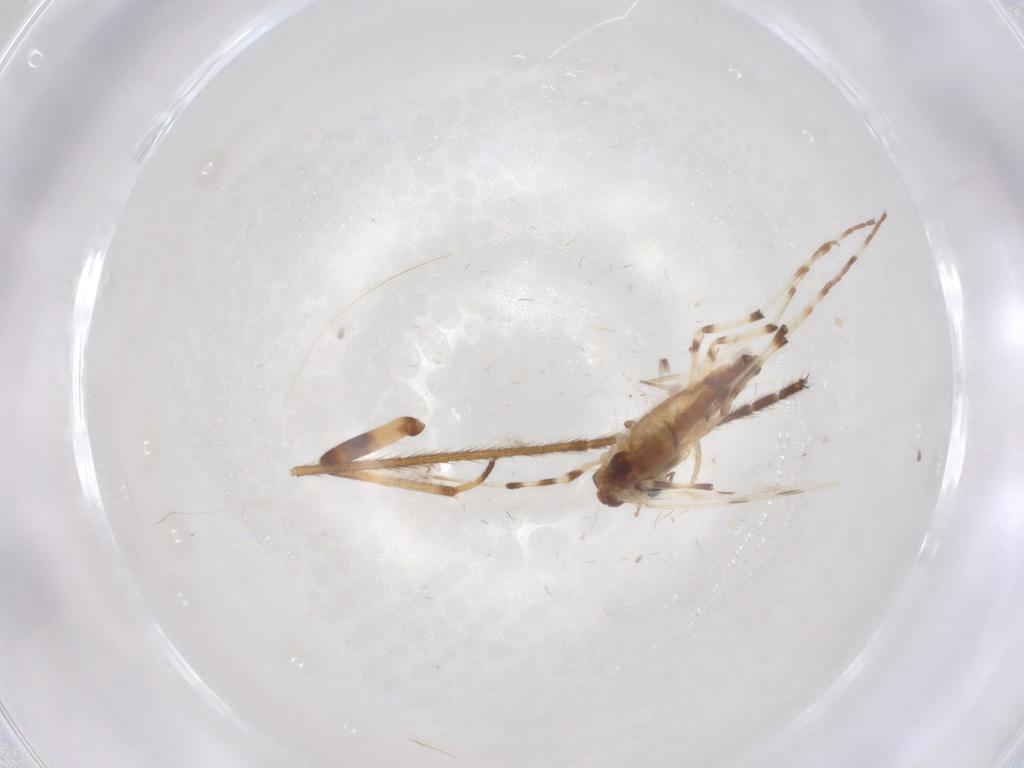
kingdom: Animalia
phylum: Arthropoda
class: Insecta
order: Diptera
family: Chironomidae
